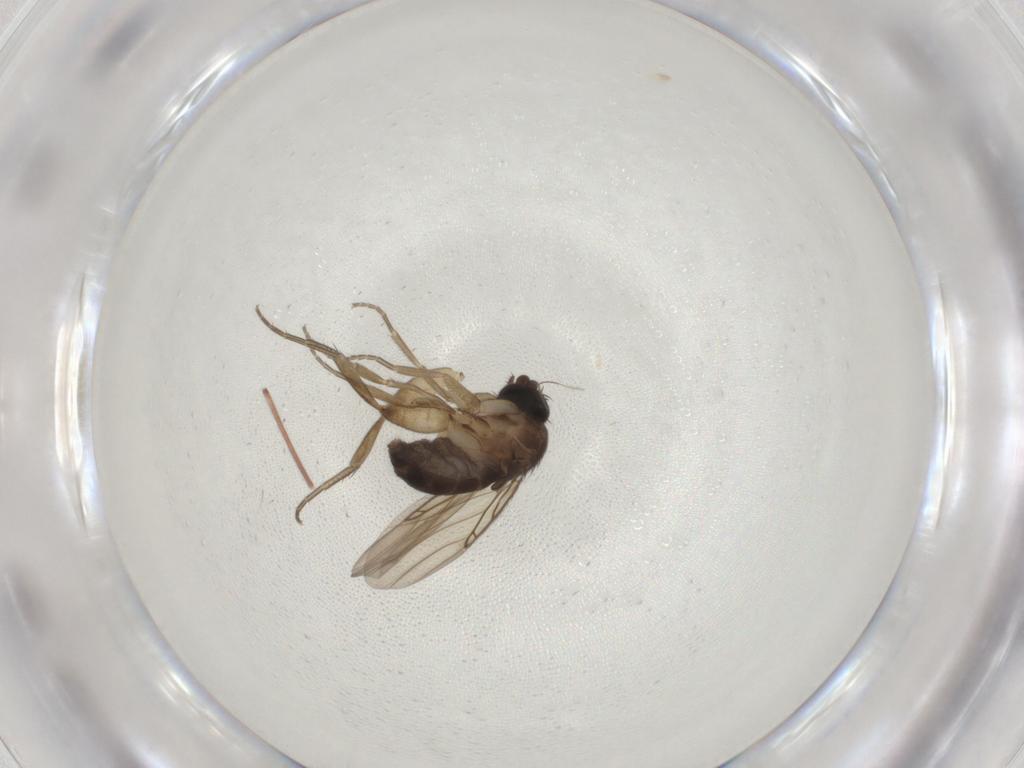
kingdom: Animalia
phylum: Arthropoda
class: Insecta
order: Diptera
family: Phoridae
